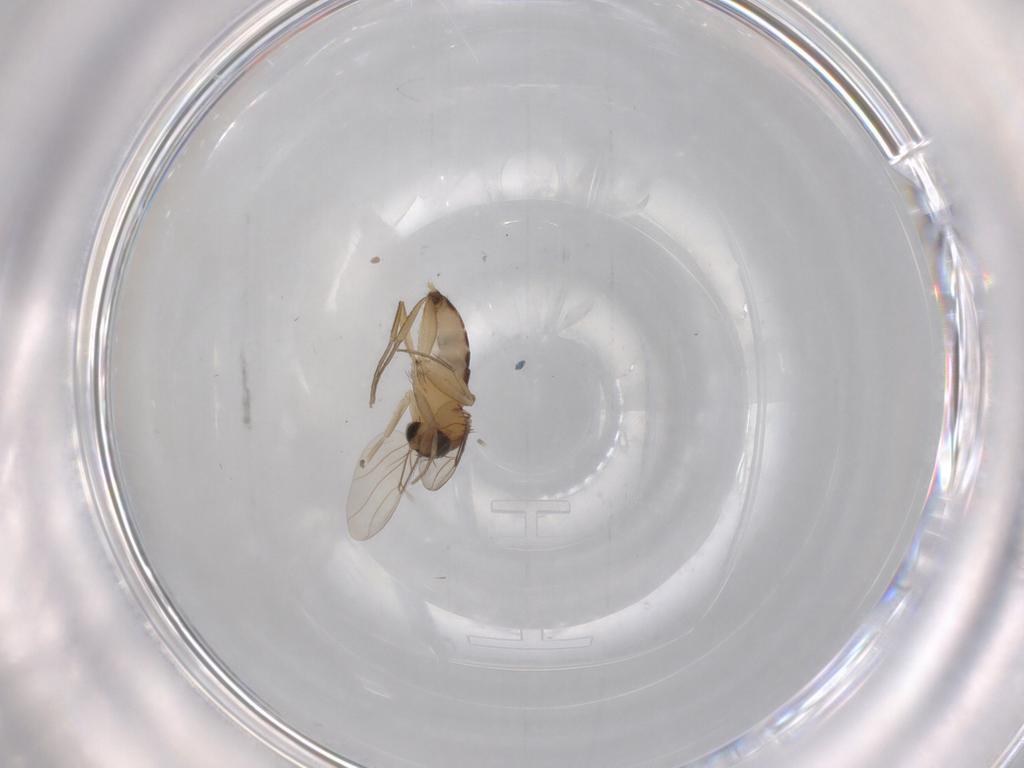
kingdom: Animalia
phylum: Arthropoda
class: Insecta
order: Diptera
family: Phoridae
